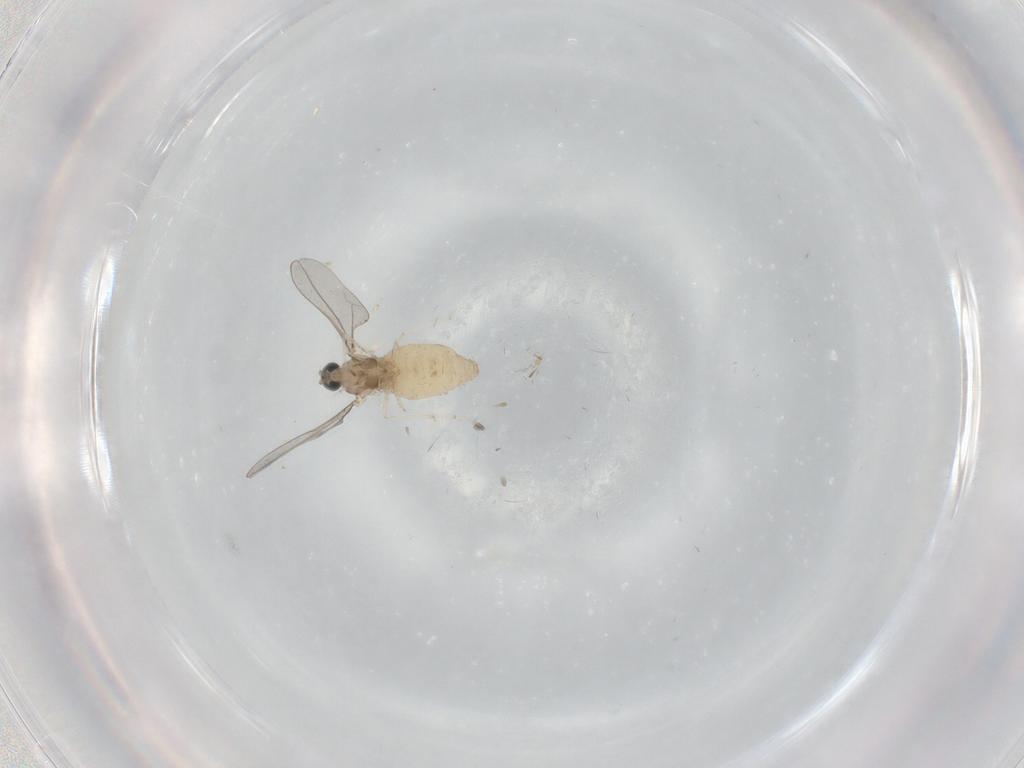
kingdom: Animalia
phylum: Arthropoda
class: Insecta
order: Diptera
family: Cecidomyiidae
